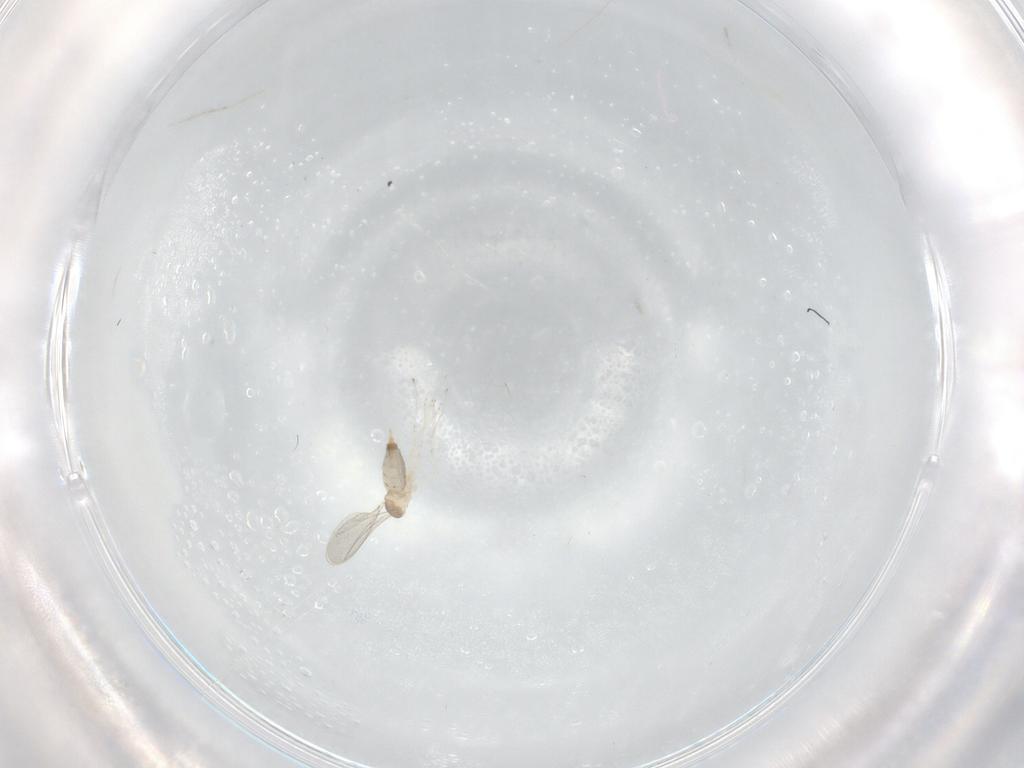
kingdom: Animalia
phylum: Arthropoda
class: Insecta
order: Diptera
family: Cecidomyiidae
